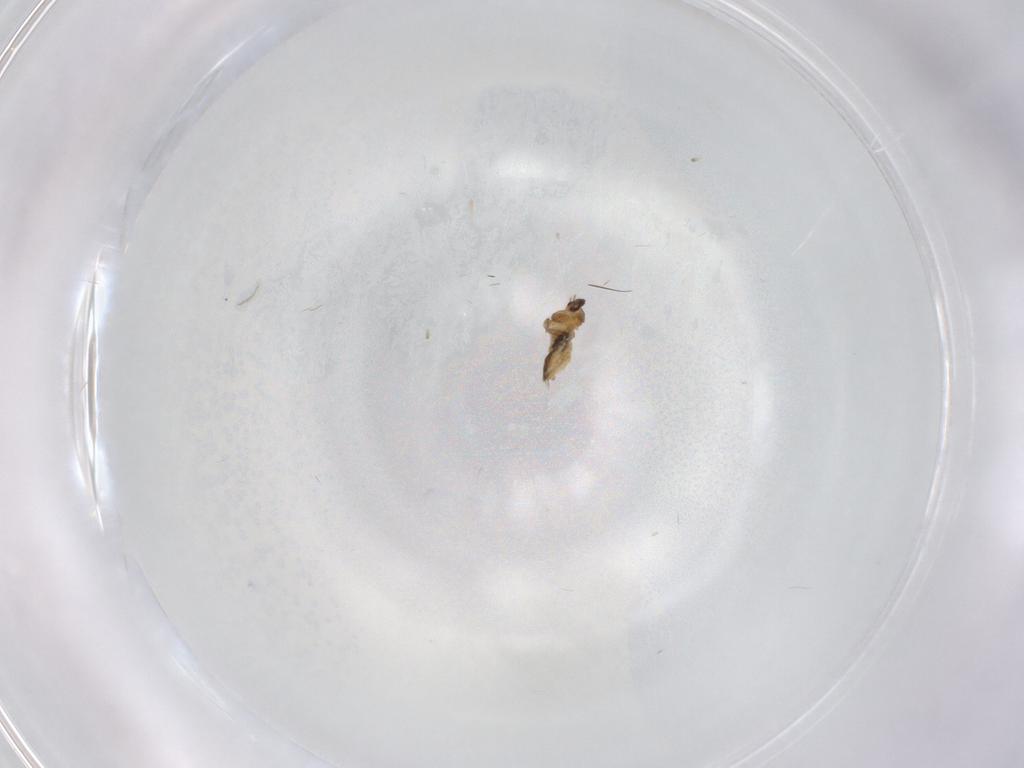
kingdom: Animalia
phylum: Arthropoda
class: Insecta
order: Diptera
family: Cecidomyiidae
